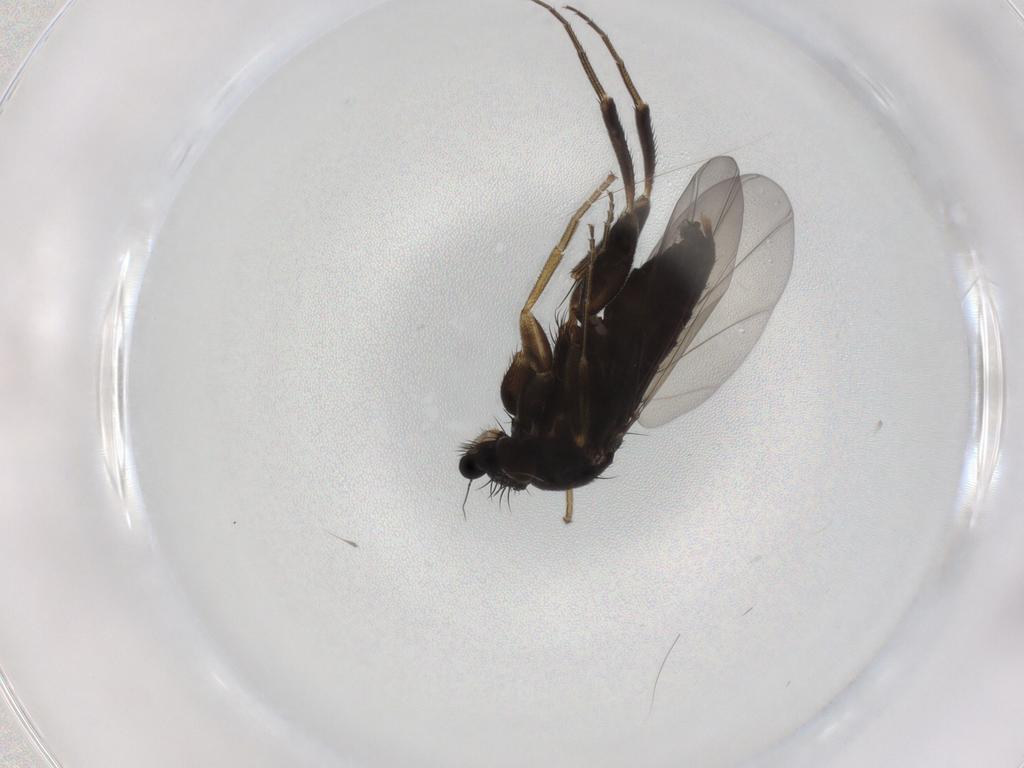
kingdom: Animalia
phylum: Arthropoda
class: Insecta
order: Diptera
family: Phoridae
